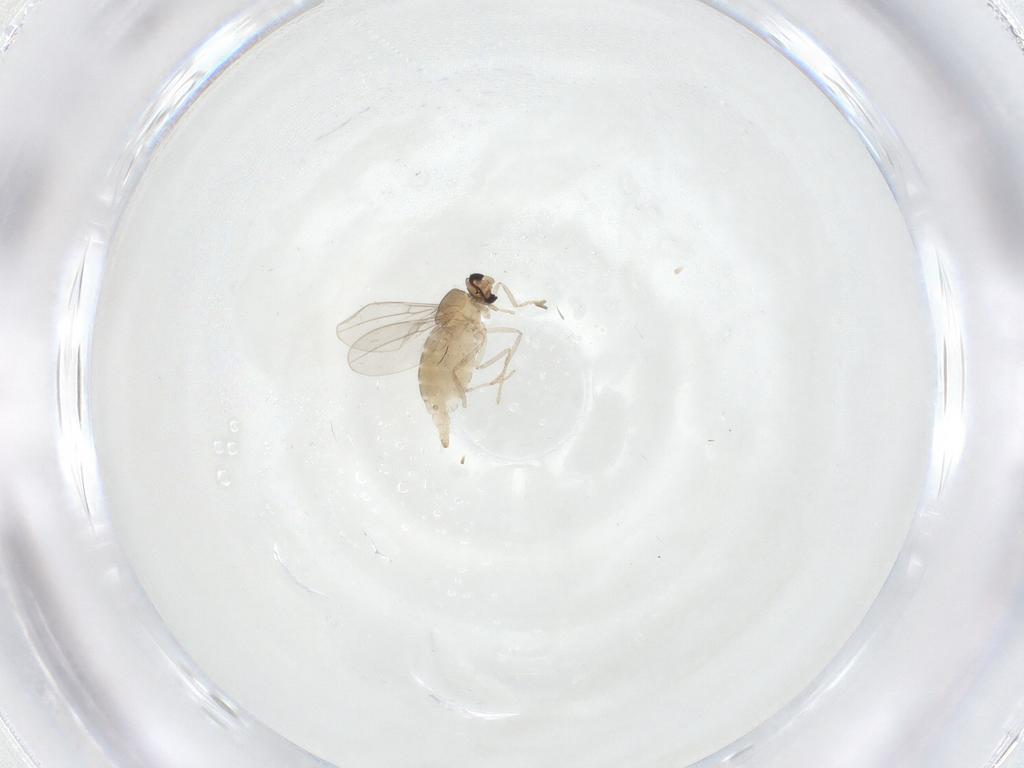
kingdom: Animalia
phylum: Arthropoda
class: Insecta
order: Diptera
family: Cecidomyiidae
